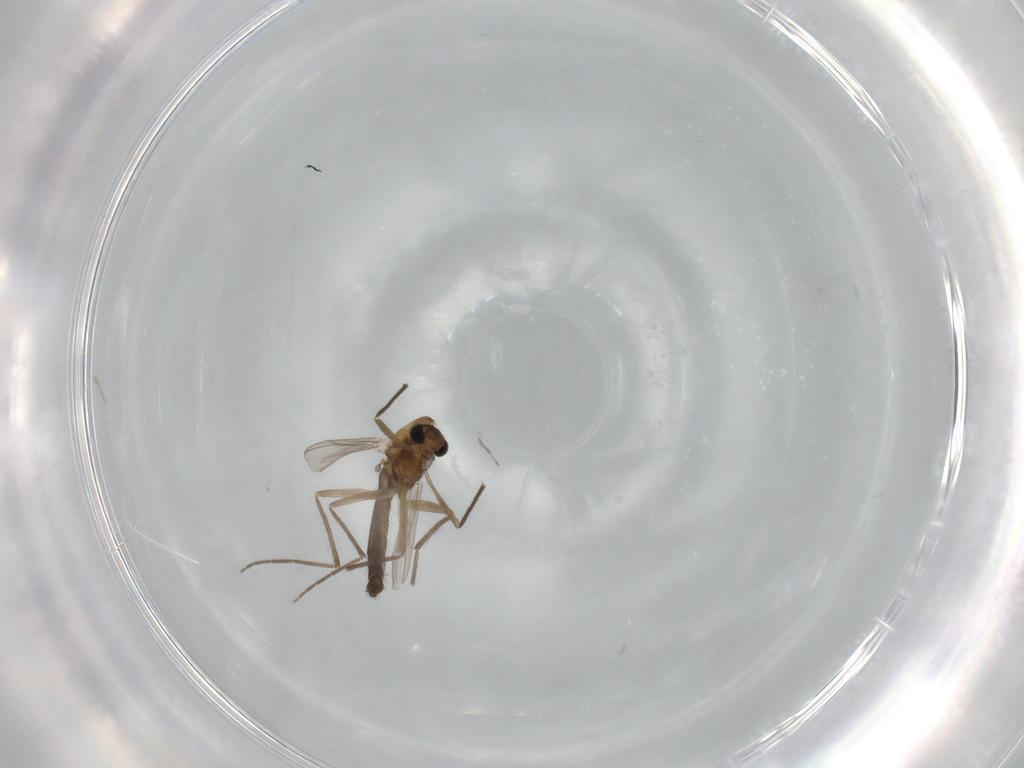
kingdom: Animalia
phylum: Arthropoda
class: Insecta
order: Diptera
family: Chironomidae
